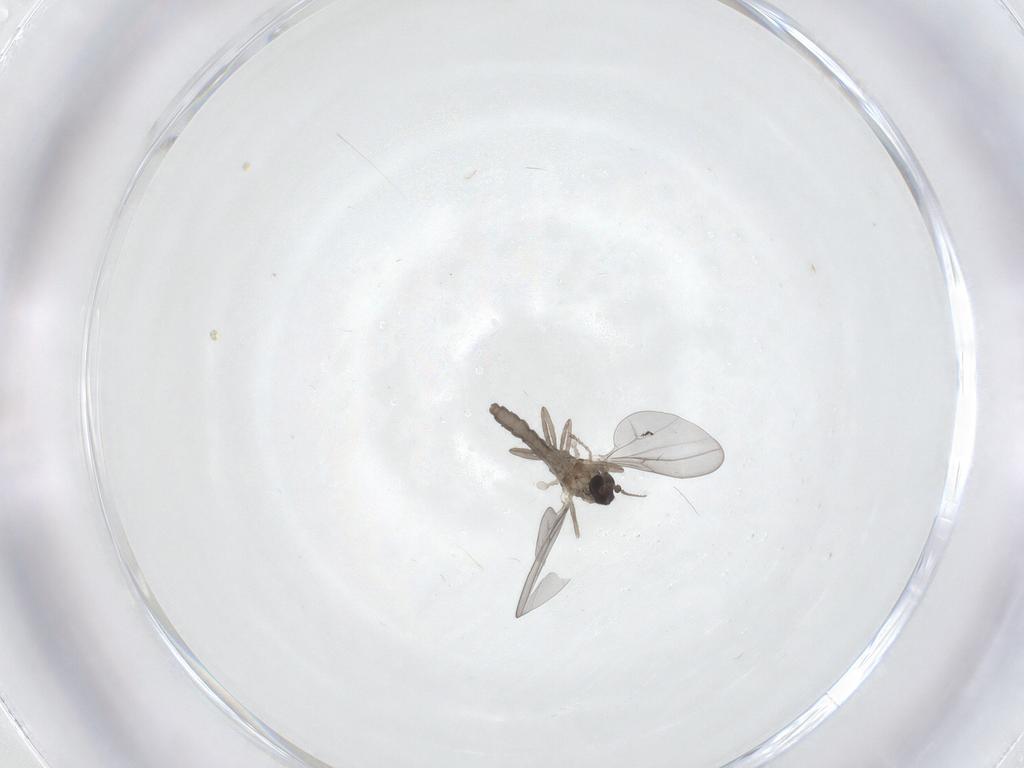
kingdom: Animalia
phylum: Arthropoda
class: Insecta
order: Diptera
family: Cecidomyiidae
